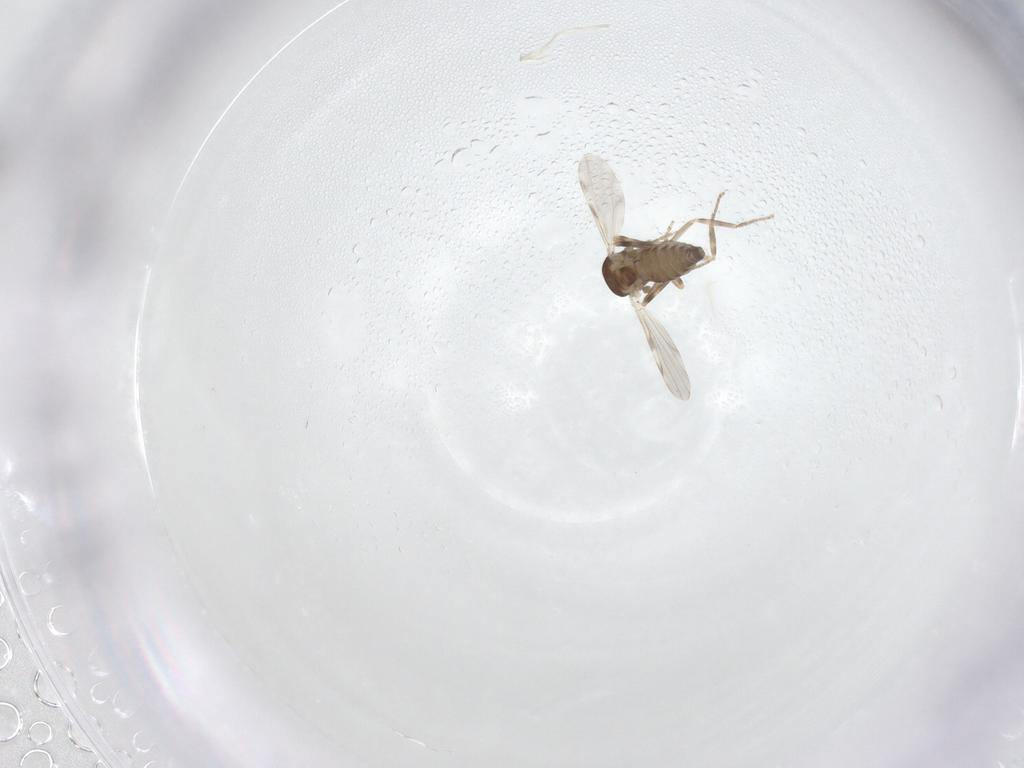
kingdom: Animalia
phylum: Arthropoda
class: Insecta
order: Diptera
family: Ceratopogonidae
